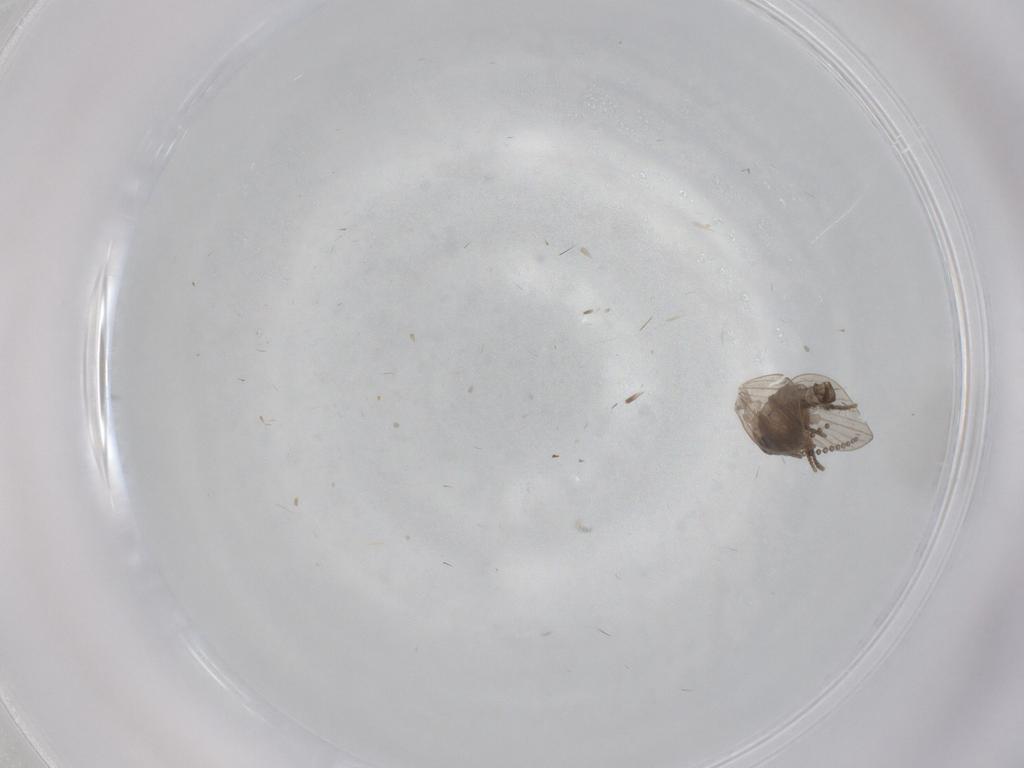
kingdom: Animalia
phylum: Arthropoda
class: Insecta
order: Diptera
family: Psychodidae
